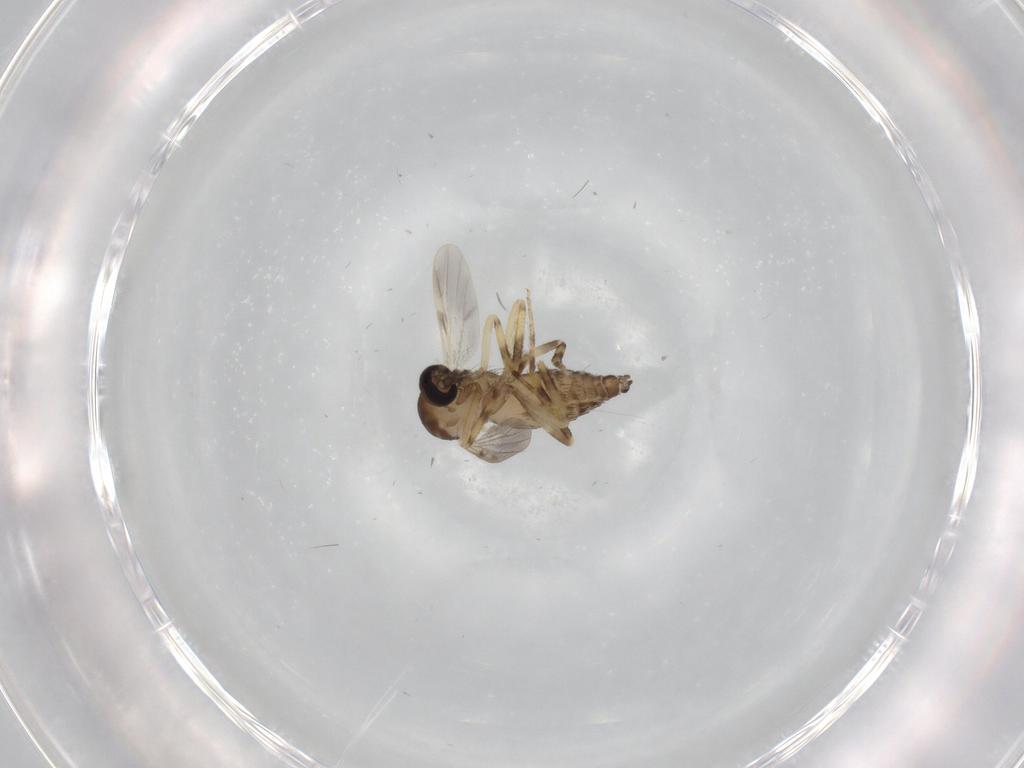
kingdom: Animalia
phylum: Arthropoda
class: Insecta
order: Diptera
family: Ceratopogonidae
